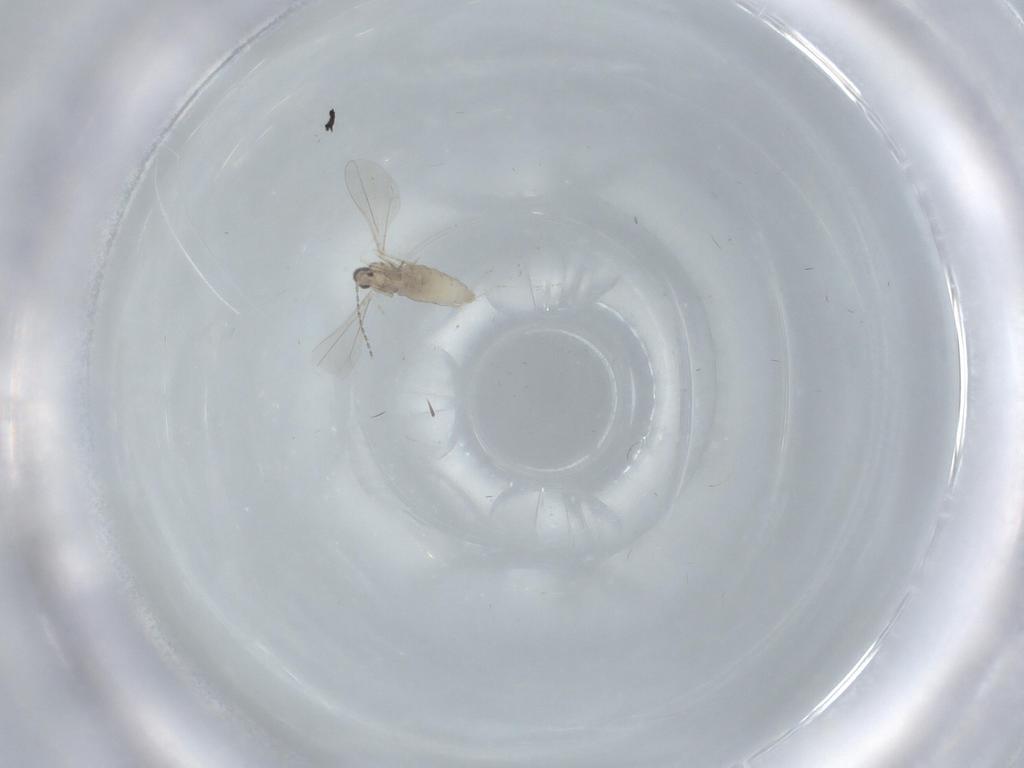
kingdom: Animalia
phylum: Arthropoda
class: Insecta
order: Diptera
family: Cecidomyiidae
